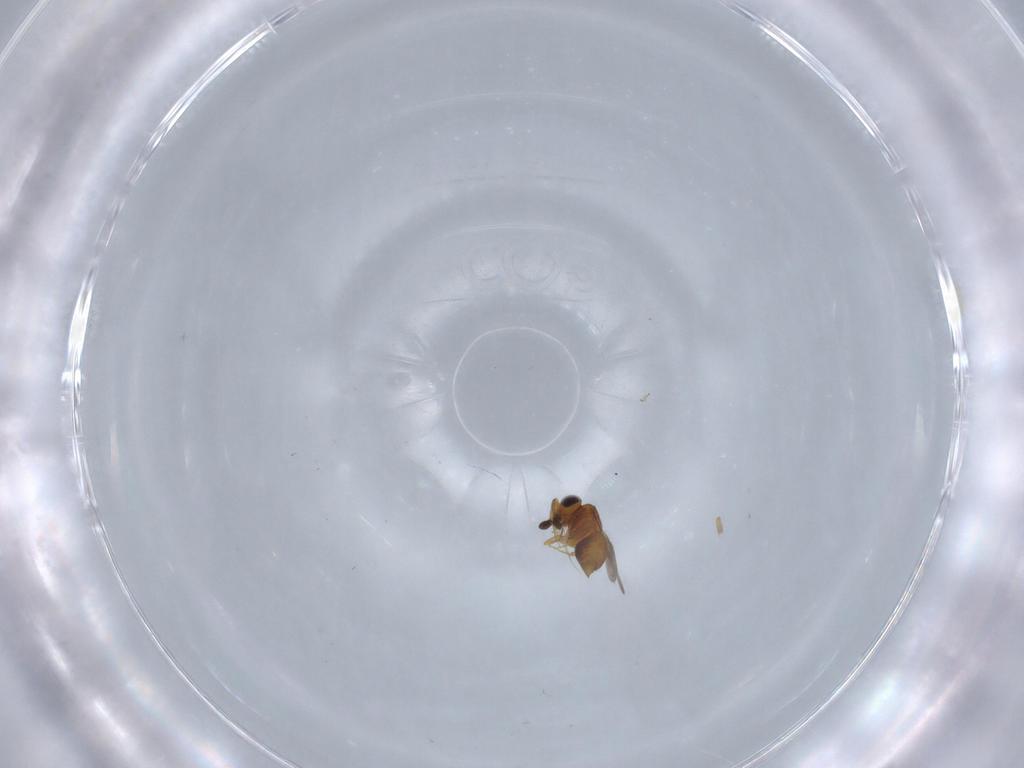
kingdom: Animalia
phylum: Arthropoda
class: Insecta
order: Hymenoptera
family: Ceraphronidae
